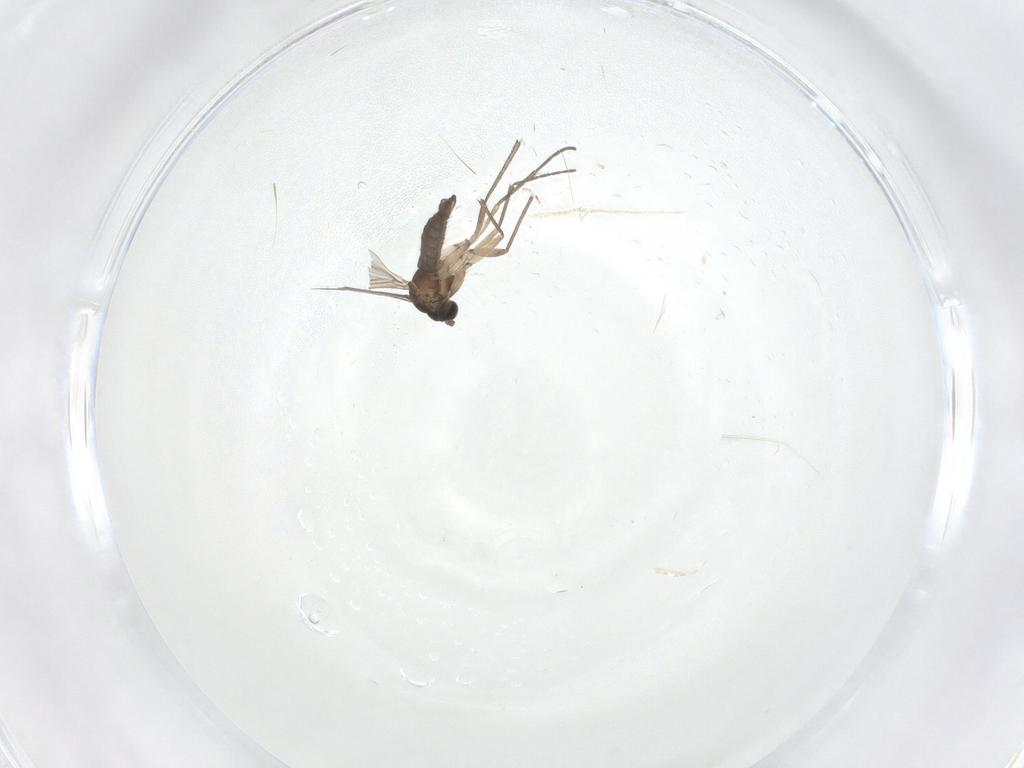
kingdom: Animalia
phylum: Arthropoda
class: Insecta
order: Diptera
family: Sciaridae
